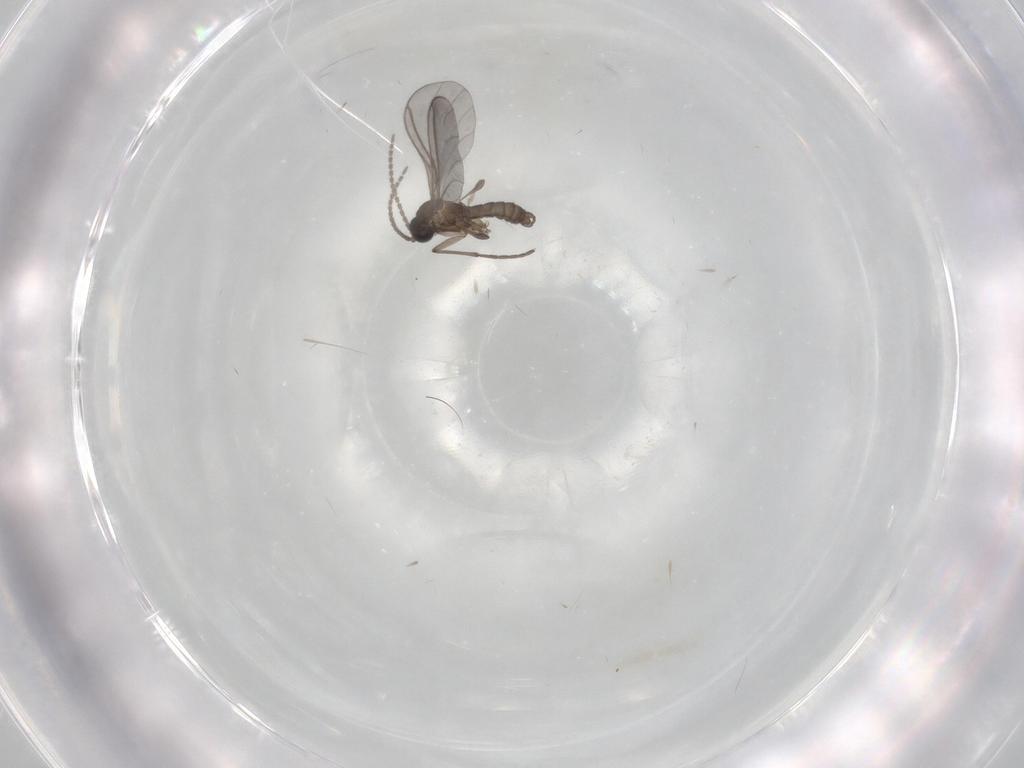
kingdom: Animalia
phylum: Arthropoda
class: Insecta
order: Diptera
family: Sciaridae
